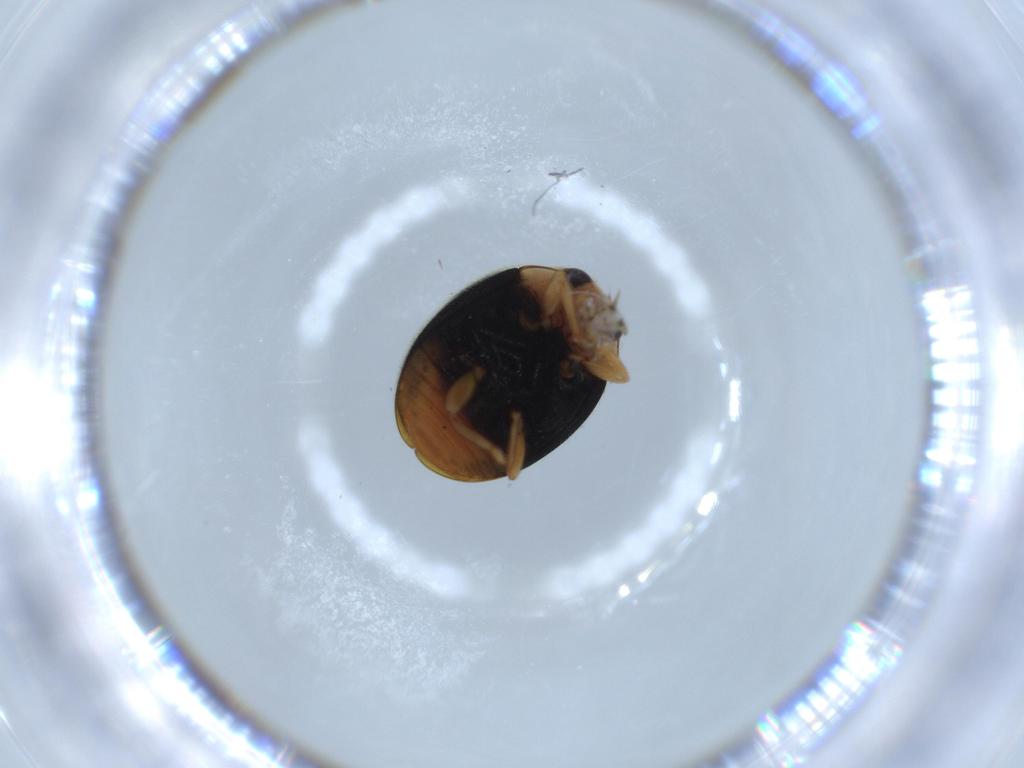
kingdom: Animalia
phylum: Arthropoda
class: Insecta
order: Coleoptera
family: Coccinellidae
